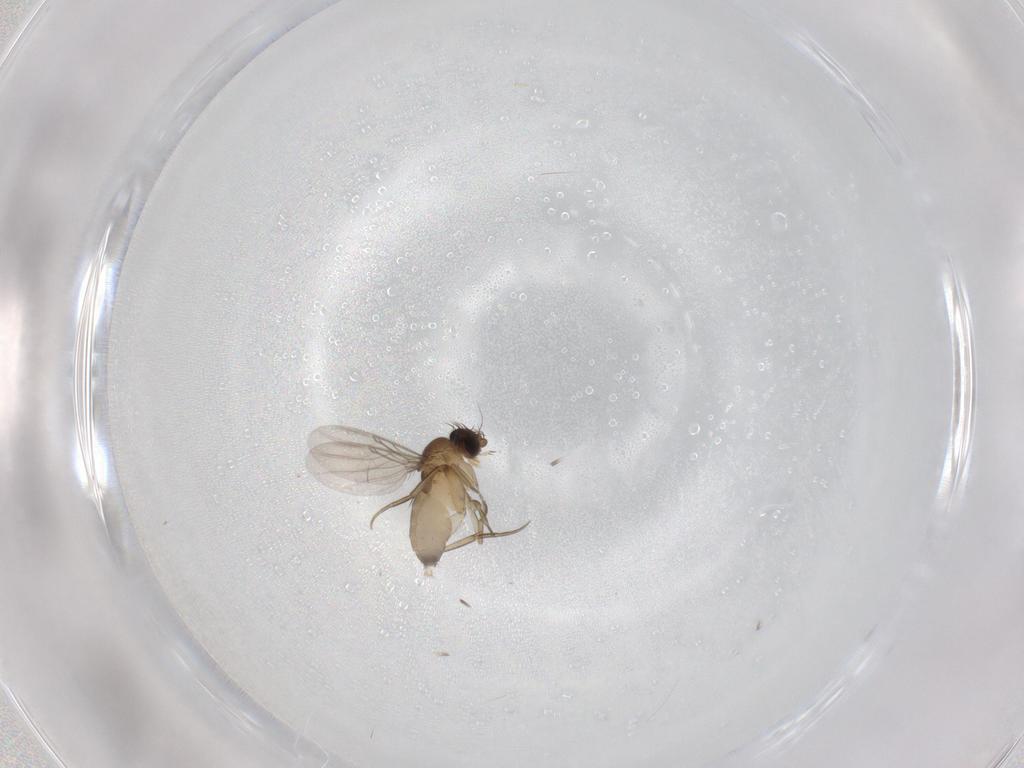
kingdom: Animalia
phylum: Arthropoda
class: Insecta
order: Diptera
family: Phoridae
